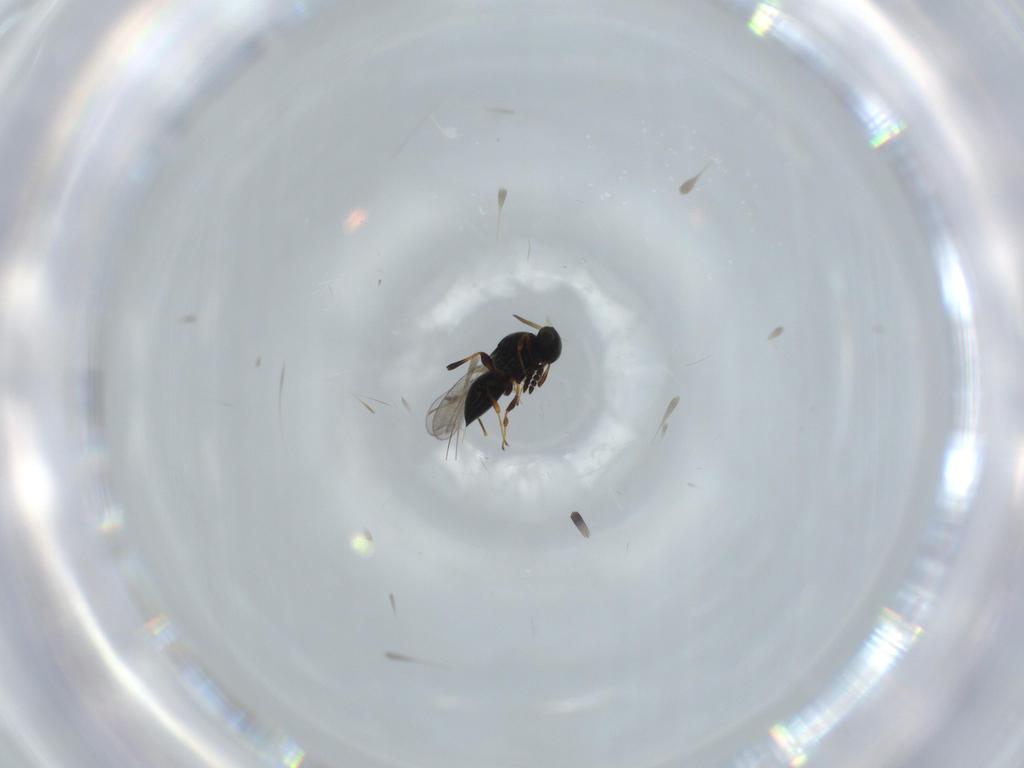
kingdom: Animalia
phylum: Arthropoda
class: Insecta
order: Hymenoptera
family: Platygastridae
